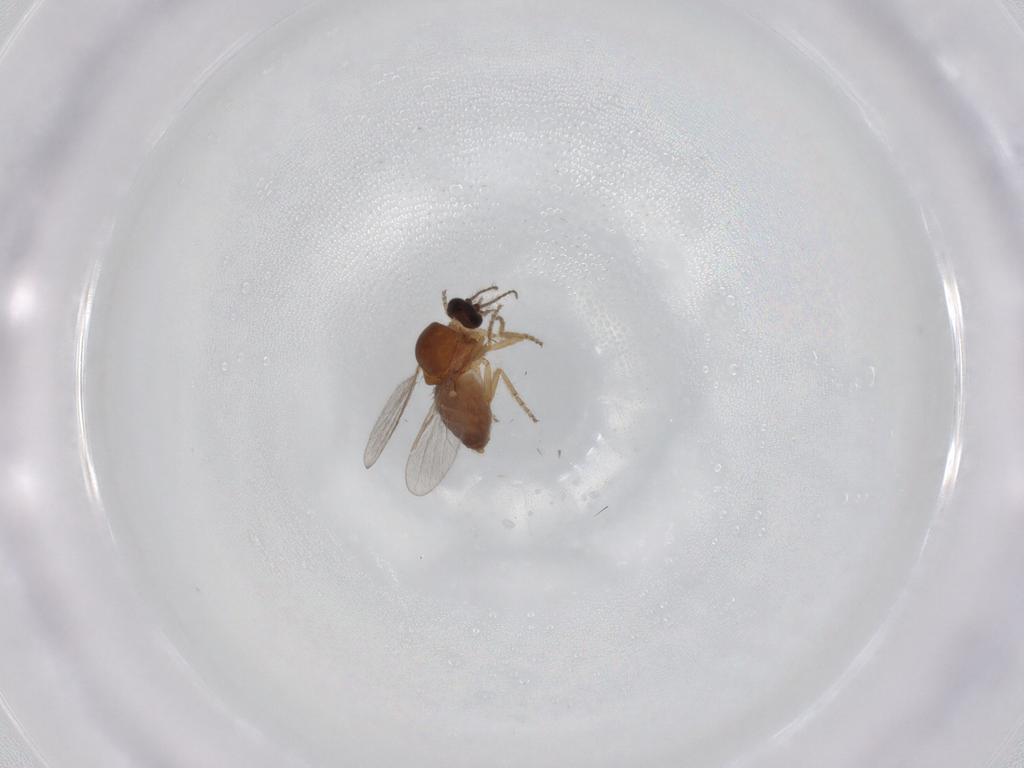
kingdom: Animalia
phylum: Arthropoda
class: Insecta
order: Diptera
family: Ceratopogonidae
